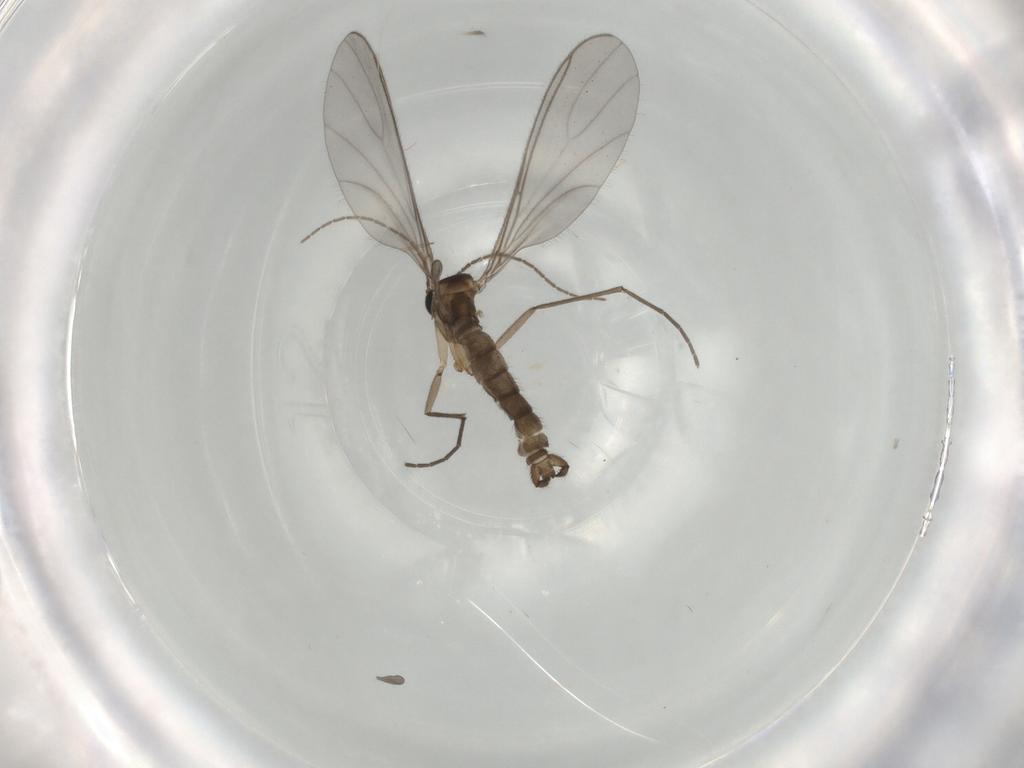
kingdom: Animalia
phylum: Arthropoda
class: Insecta
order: Diptera
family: Sciaridae
